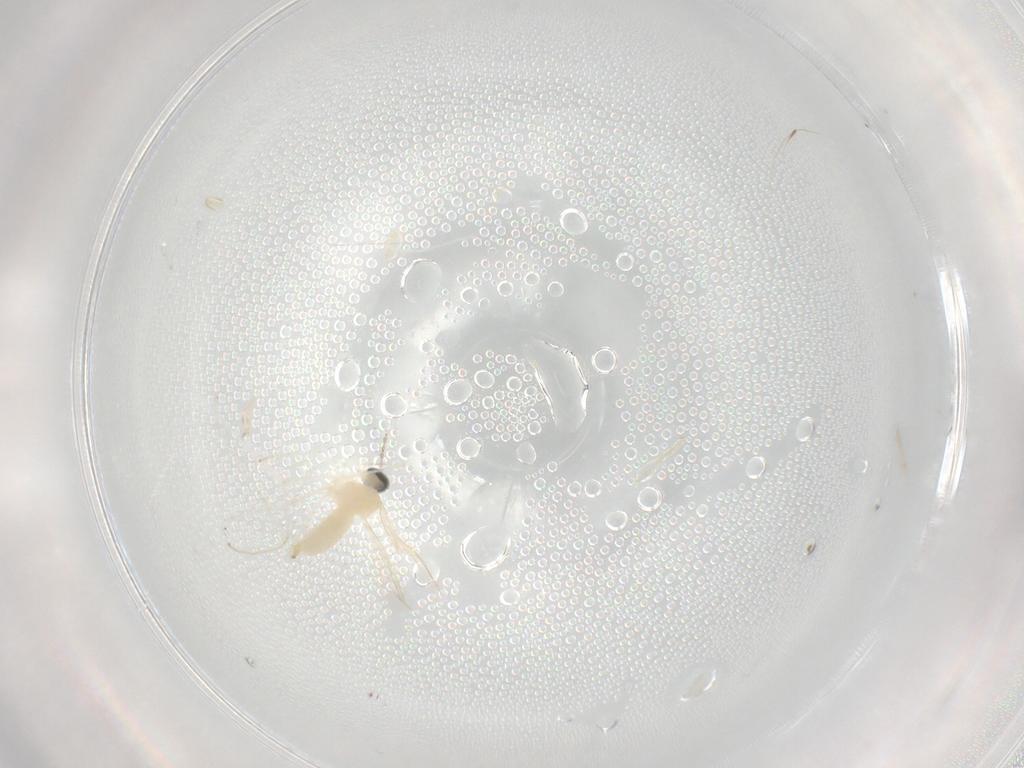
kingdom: Animalia
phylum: Arthropoda
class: Insecta
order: Diptera
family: Cecidomyiidae
